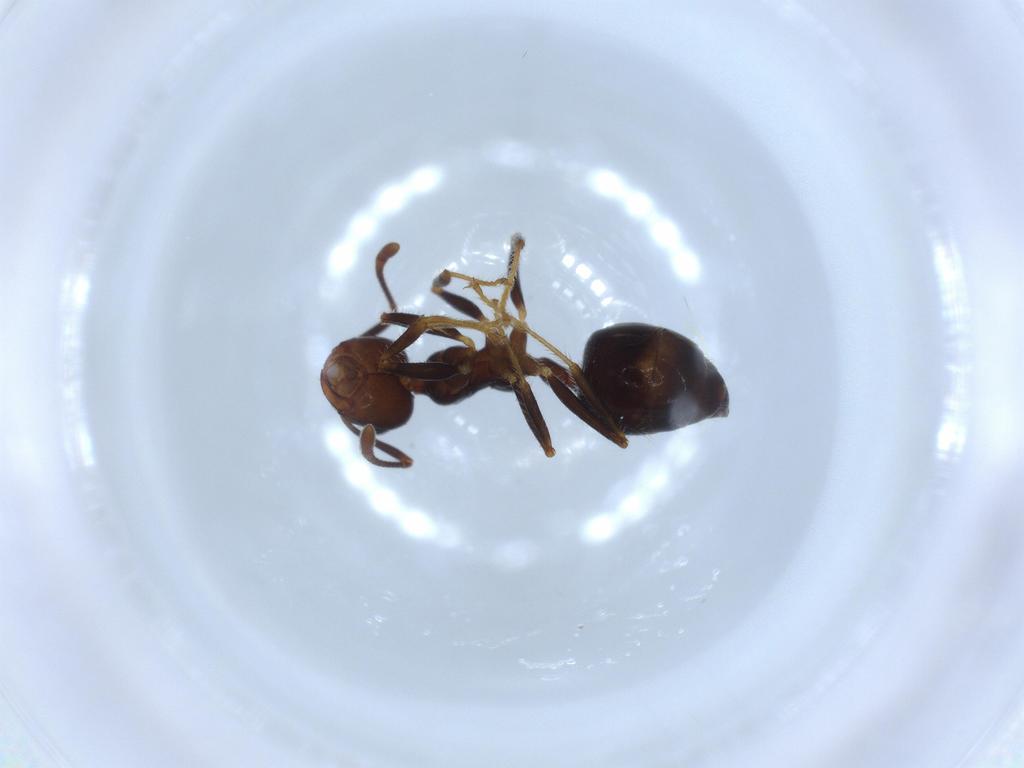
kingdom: Animalia
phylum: Arthropoda
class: Insecta
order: Hymenoptera
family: Formicidae
